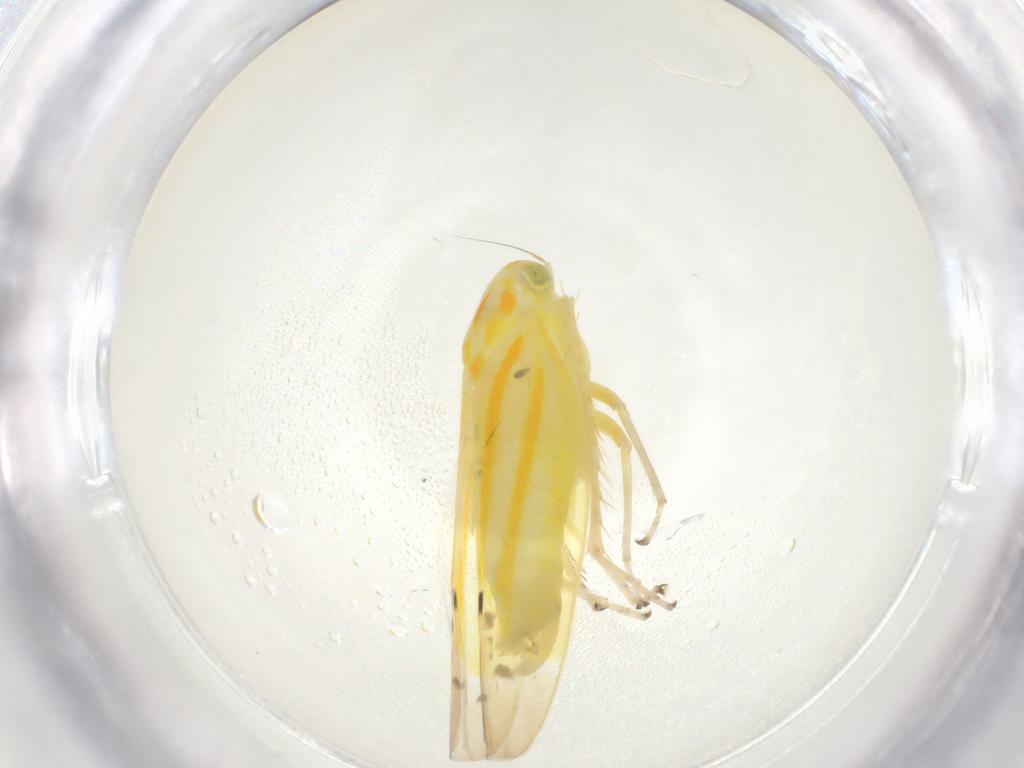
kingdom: Animalia
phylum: Arthropoda
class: Insecta
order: Hemiptera
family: Cicadellidae
